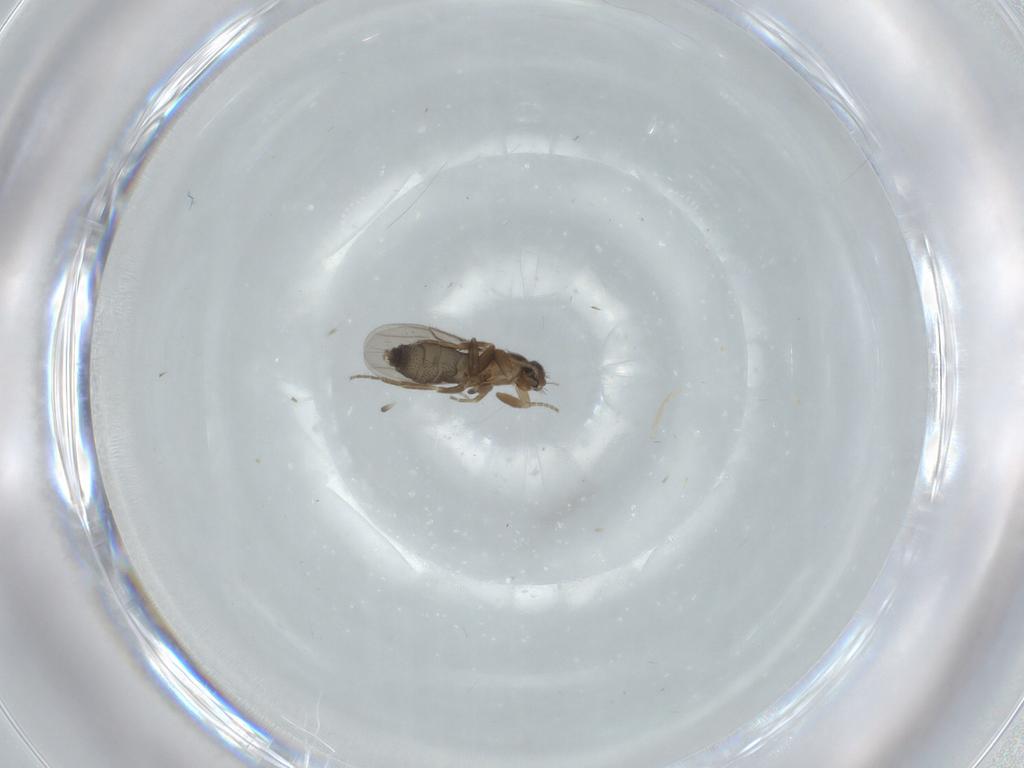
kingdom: Animalia
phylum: Arthropoda
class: Insecta
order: Diptera
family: Phoridae
